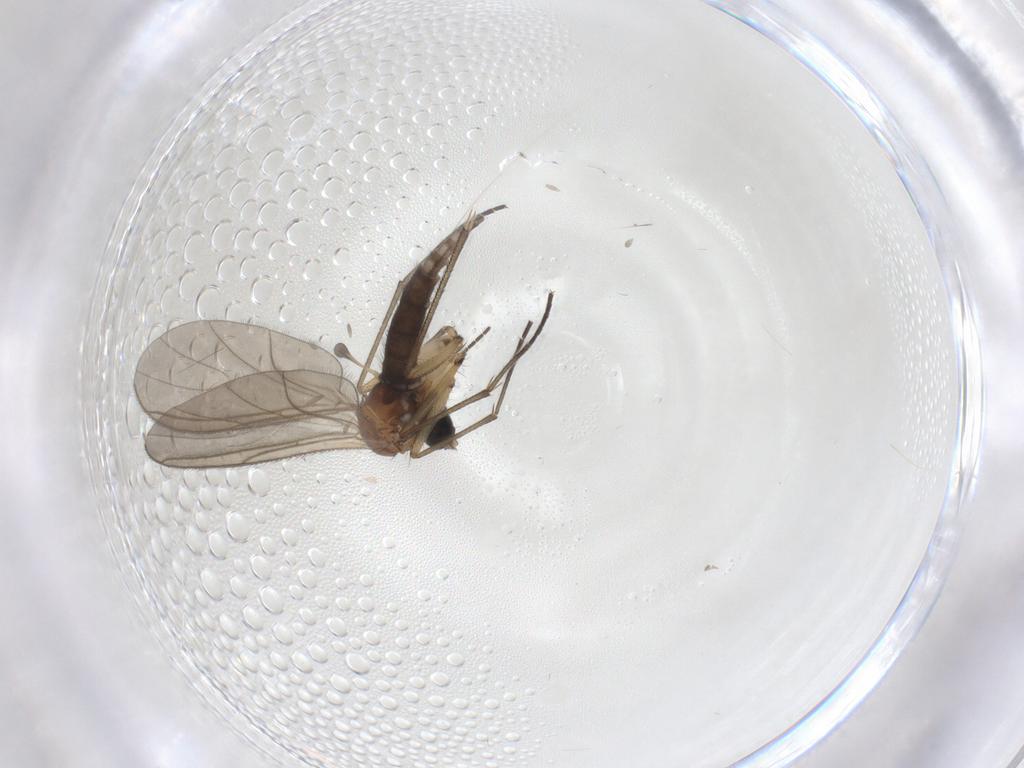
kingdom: Animalia
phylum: Arthropoda
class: Insecta
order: Diptera
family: Sciaridae
